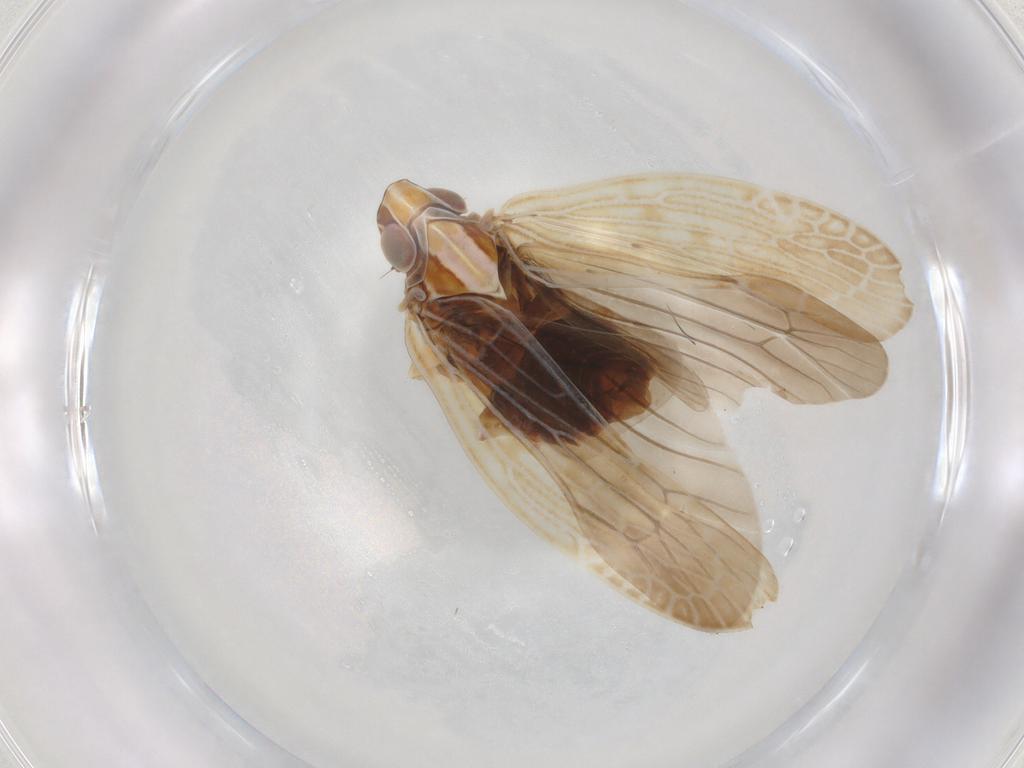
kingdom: Animalia
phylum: Arthropoda
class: Insecta
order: Hemiptera
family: Achilidae
